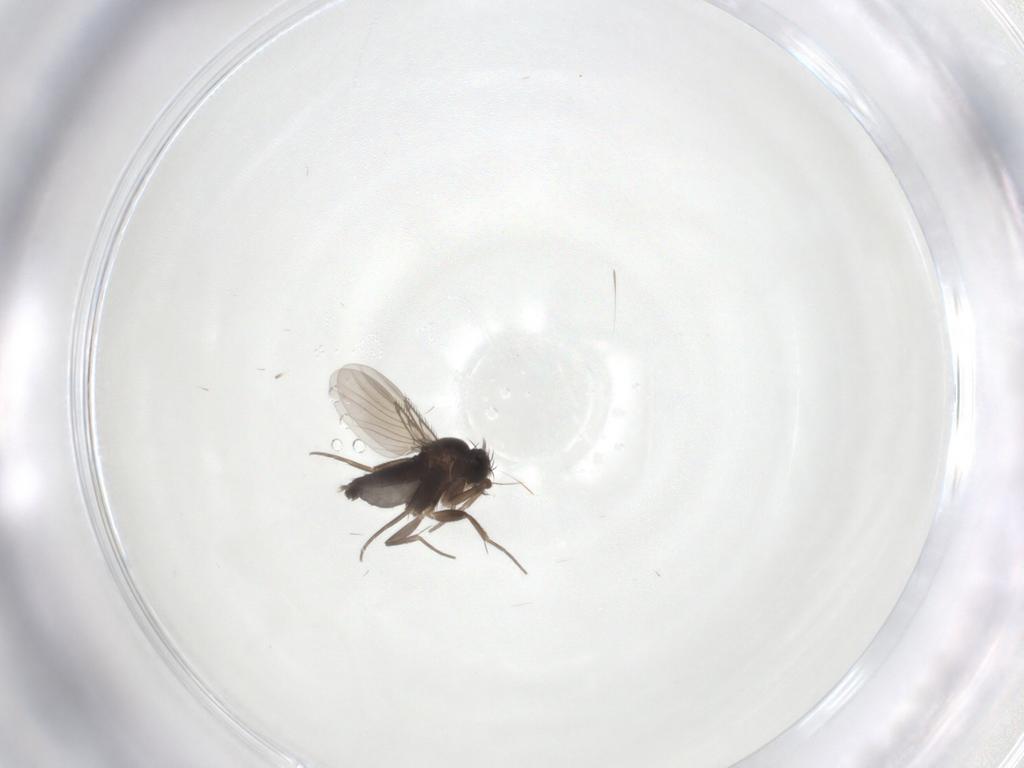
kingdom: Animalia
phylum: Arthropoda
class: Insecta
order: Diptera
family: Phoridae
